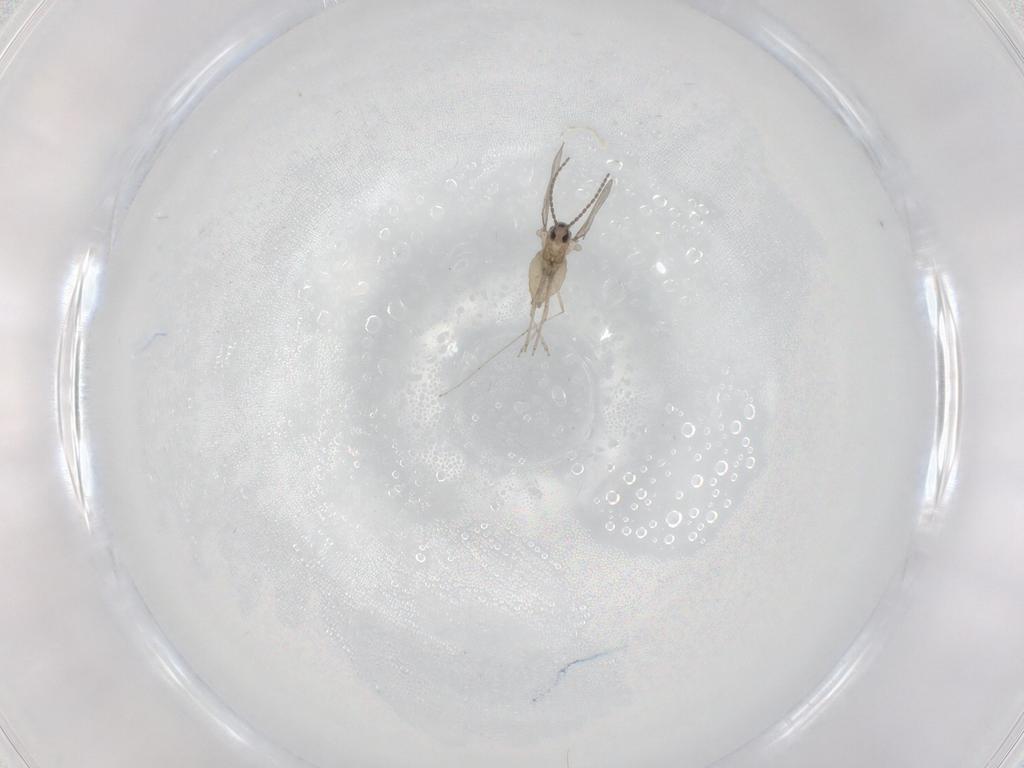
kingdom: Animalia
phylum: Arthropoda
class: Insecta
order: Diptera
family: Cecidomyiidae
